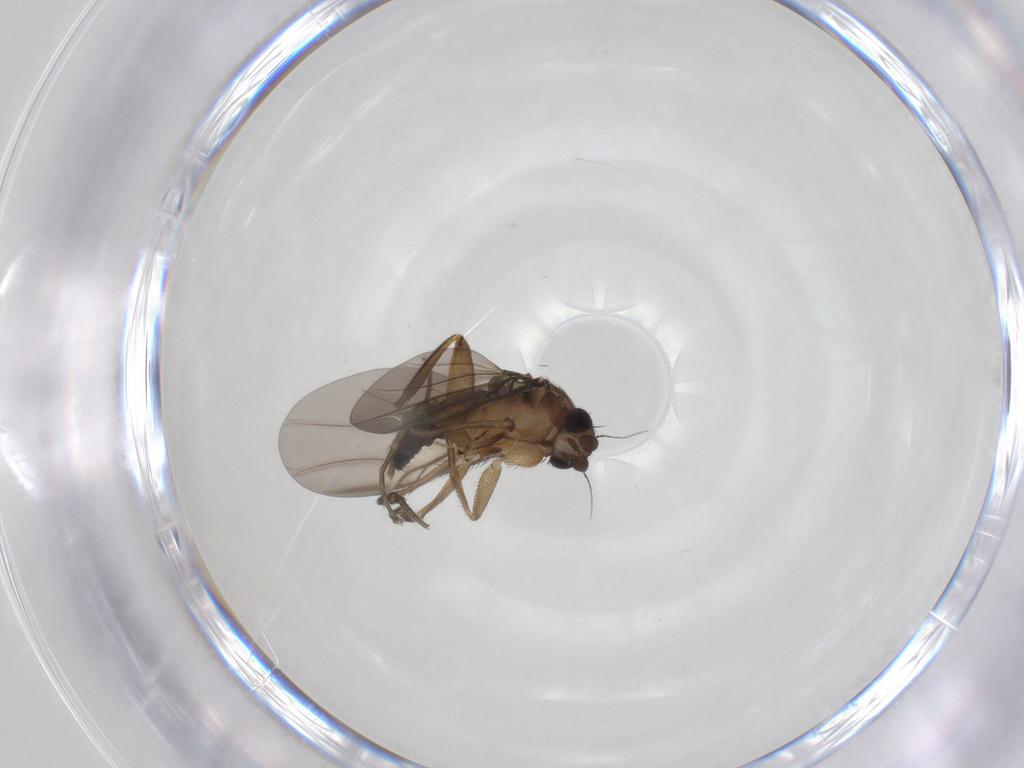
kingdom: Animalia
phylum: Arthropoda
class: Insecta
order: Diptera
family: Phoridae
